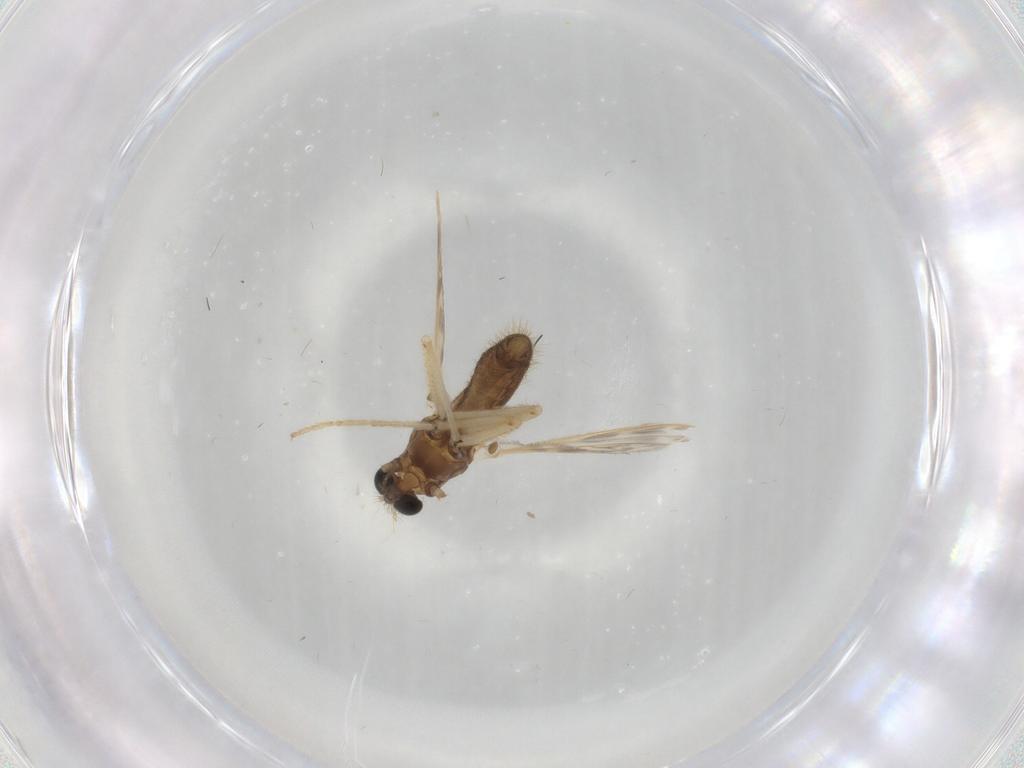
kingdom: Animalia
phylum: Arthropoda
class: Insecta
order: Diptera
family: Chironomidae
